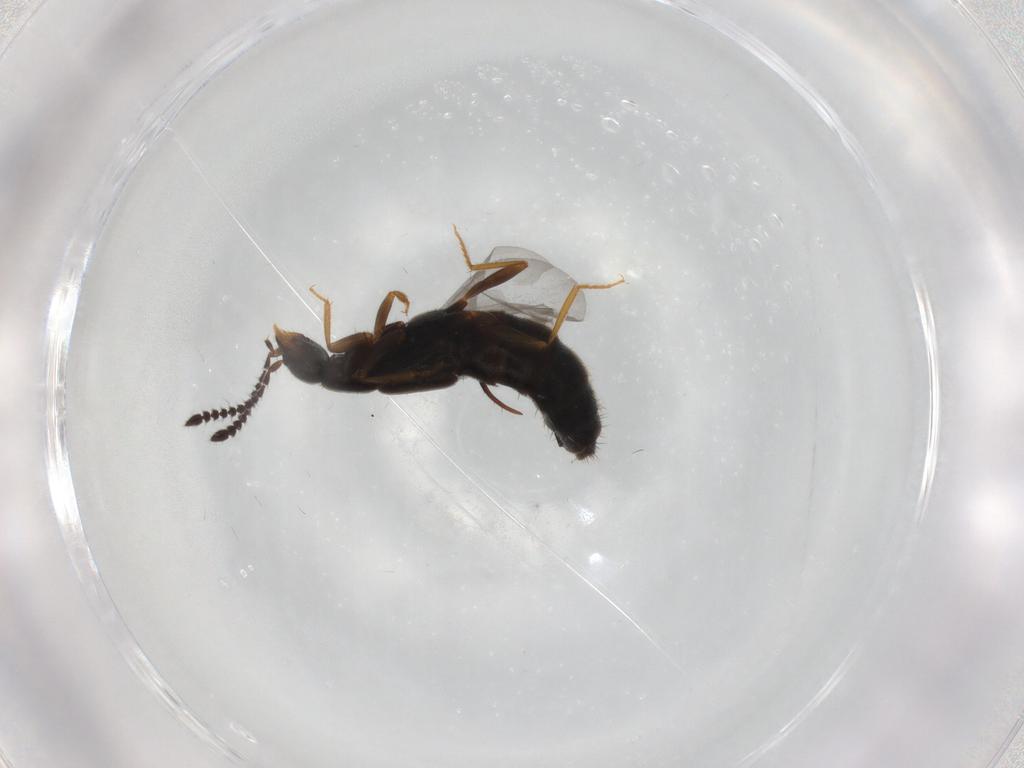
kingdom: Animalia
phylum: Arthropoda
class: Insecta
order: Coleoptera
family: Staphylinidae
